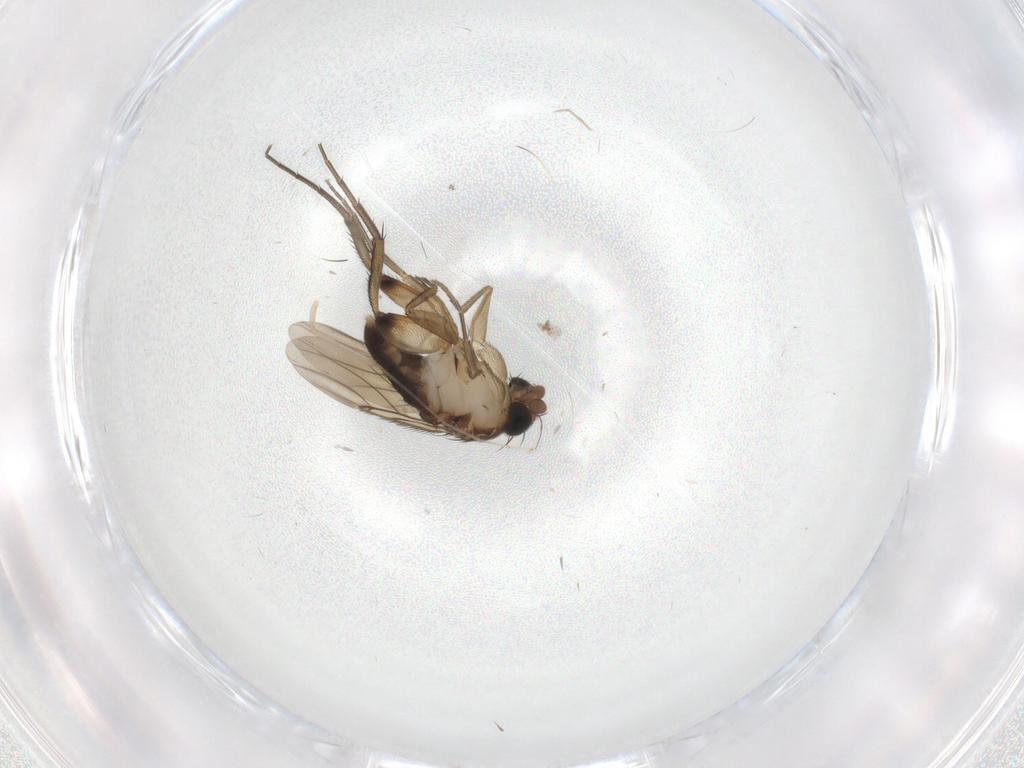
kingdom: Animalia
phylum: Arthropoda
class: Insecta
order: Diptera
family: Phoridae
